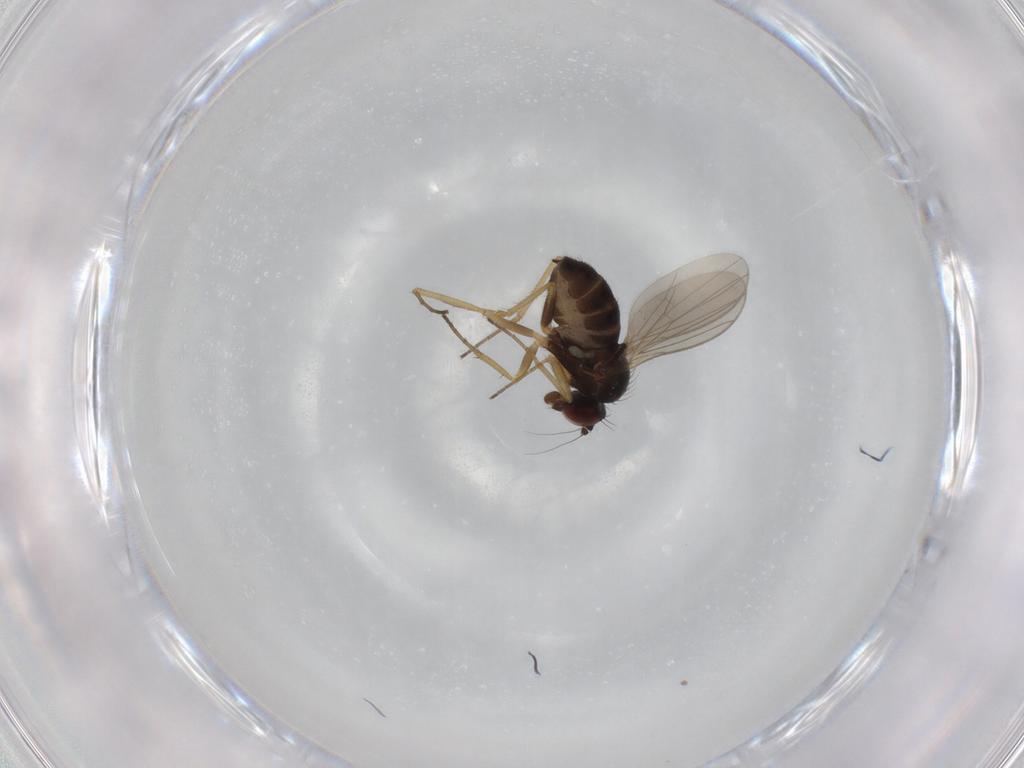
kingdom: Animalia
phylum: Arthropoda
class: Insecta
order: Diptera
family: Dolichopodidae
